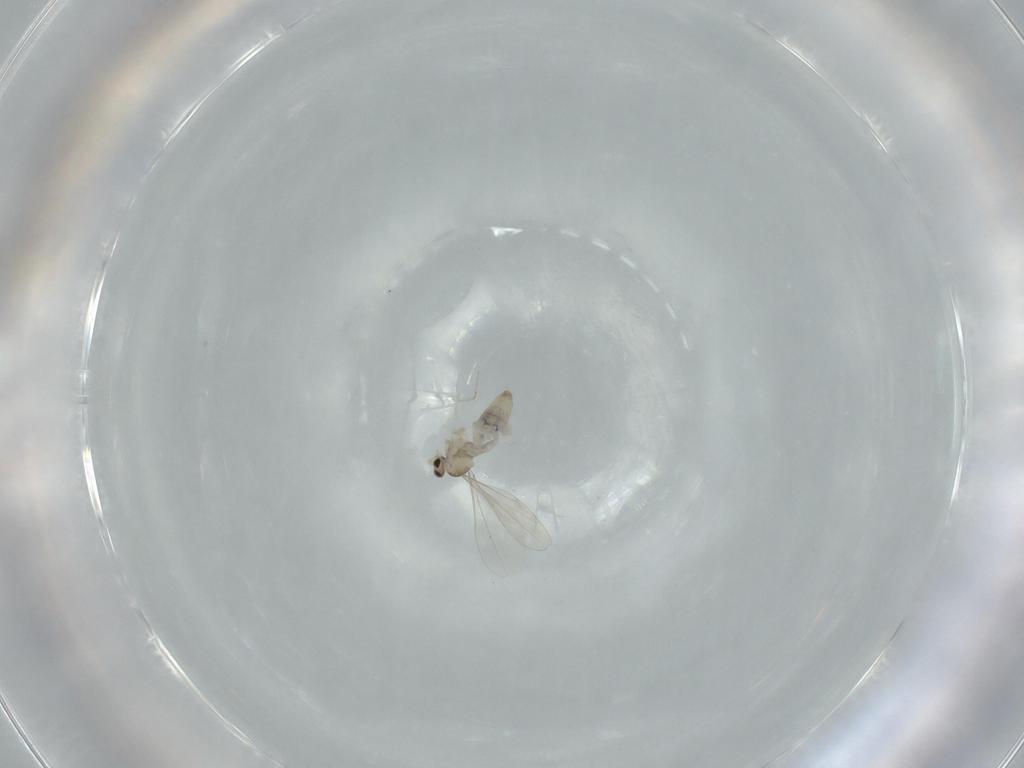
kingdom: Animalia
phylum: Arthropoda
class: Insecta
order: Diptera
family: Cecidomyiidae
